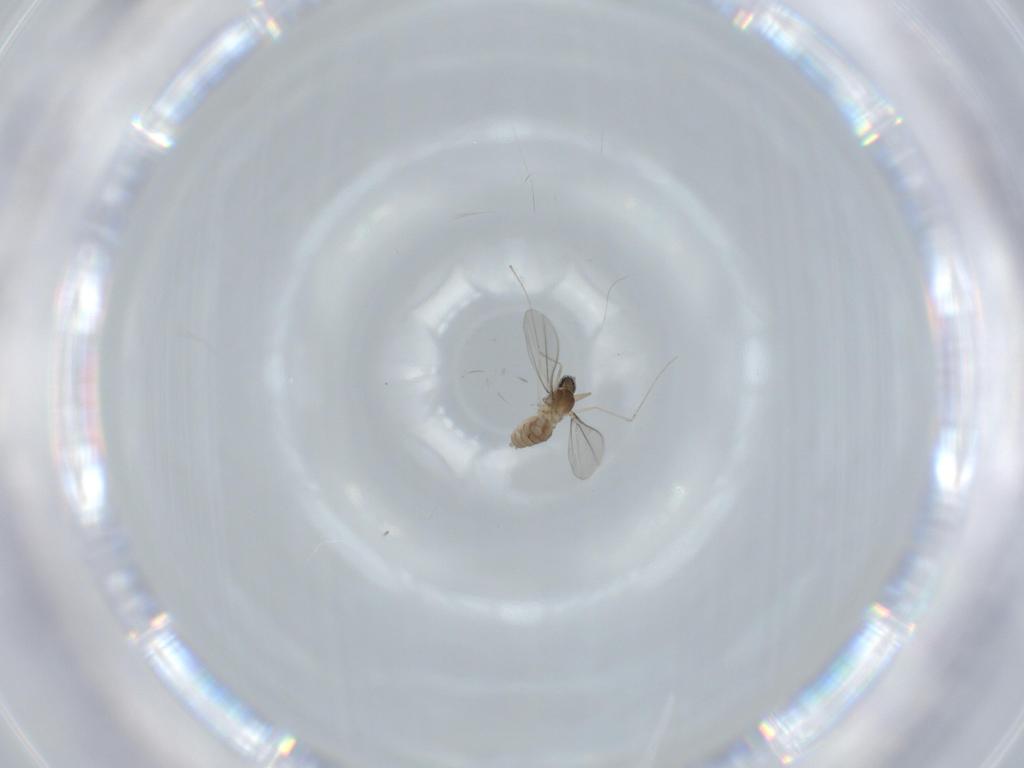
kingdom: Animalia
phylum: Arthropoda
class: Insecta
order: Diptera
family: Cecidomyiidae
